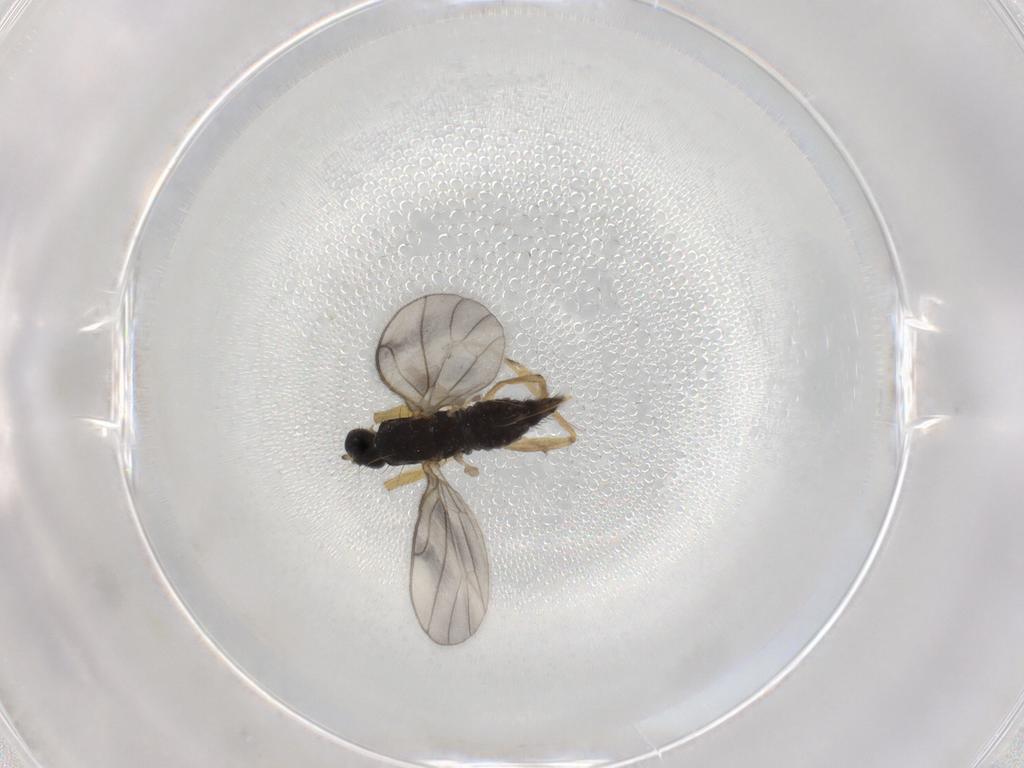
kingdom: Animalia
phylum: Arthropoda
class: Insecta
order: Diptera
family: Chironomidae
